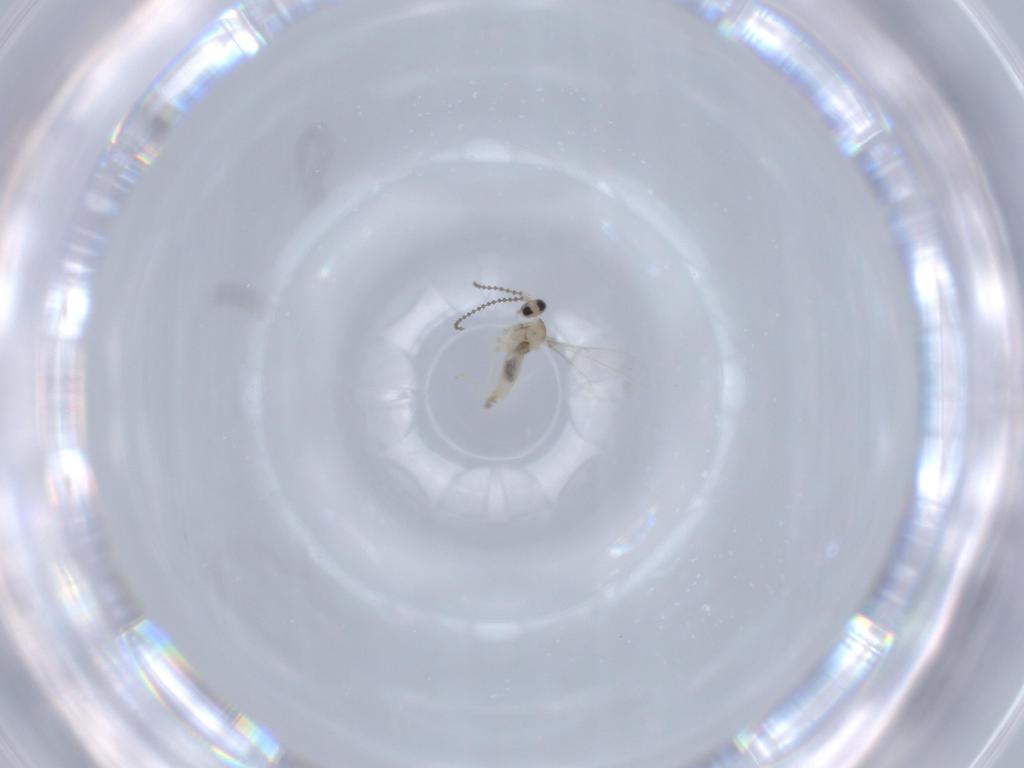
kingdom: Animalia
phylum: Arthropoda
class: Insecta
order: Diptera
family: Cecidomyiidae
